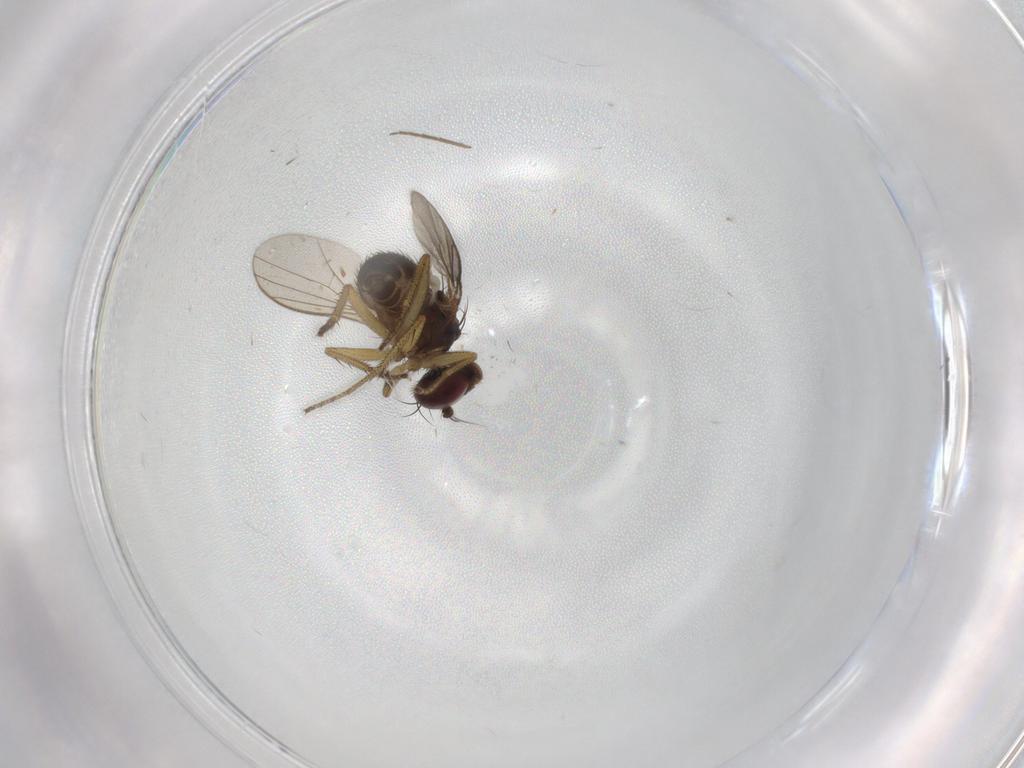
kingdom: Animalia
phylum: Arthropoda
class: Insecta
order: Diptera
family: Dolichopodidae
